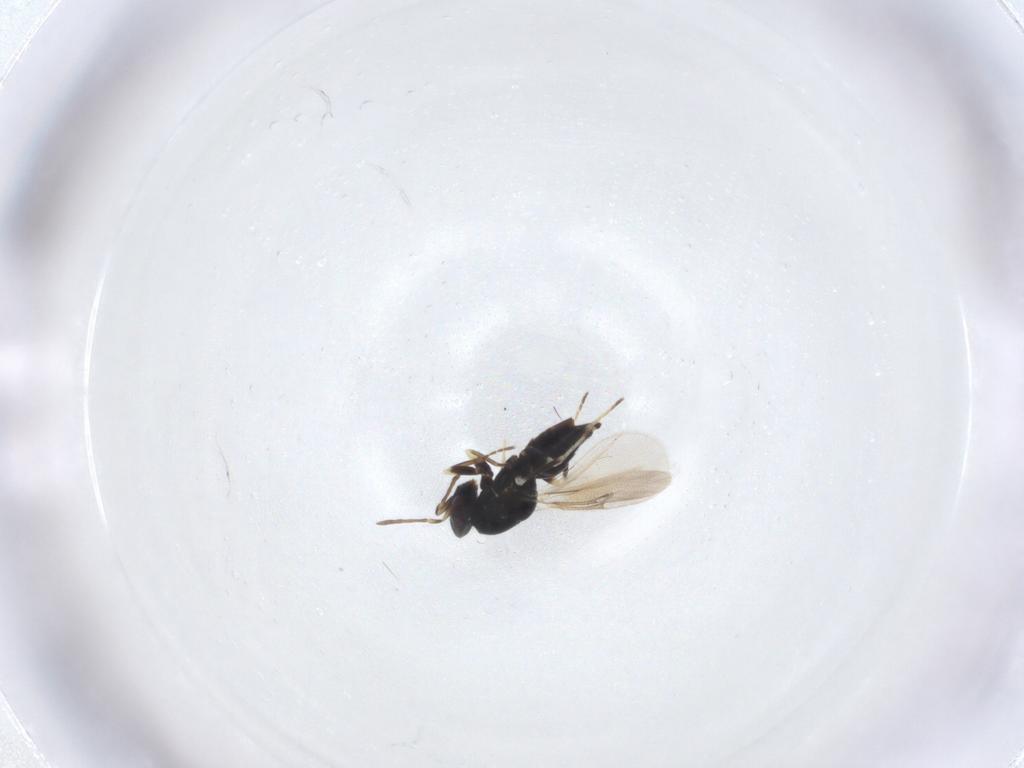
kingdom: Animalia
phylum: Arthropoda
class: Insecta
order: Hymenoptera
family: Eulophidae
